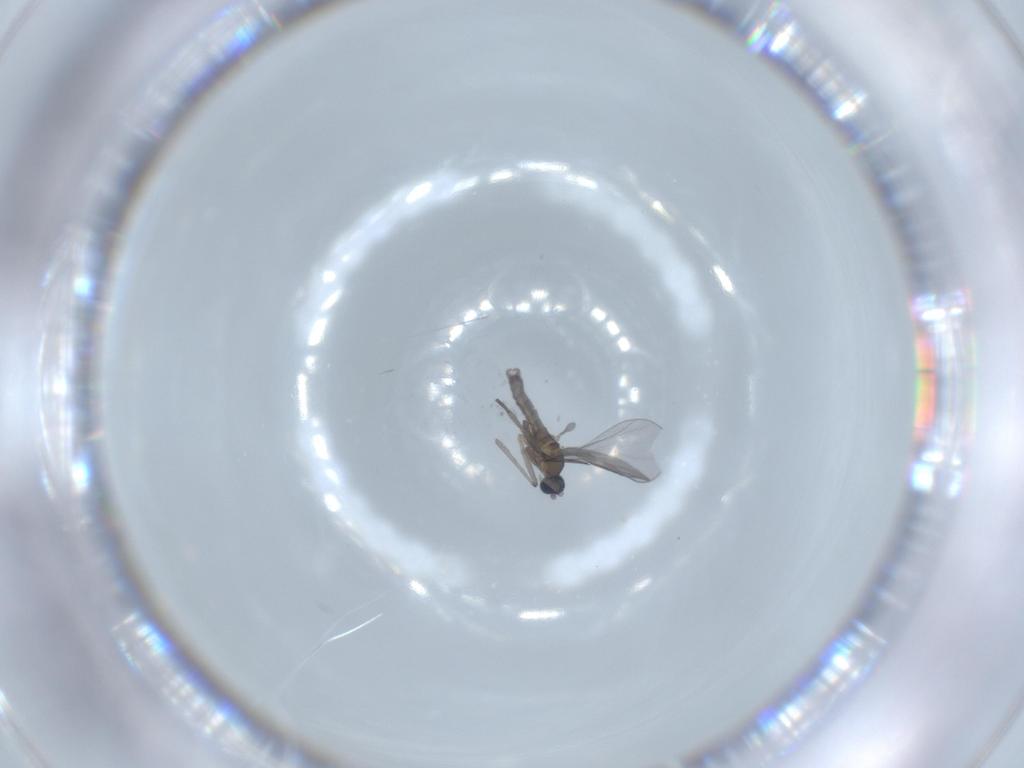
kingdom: Animalia
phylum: Arthropoda
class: Insecta
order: Diptera
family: Cecidomyiidae
